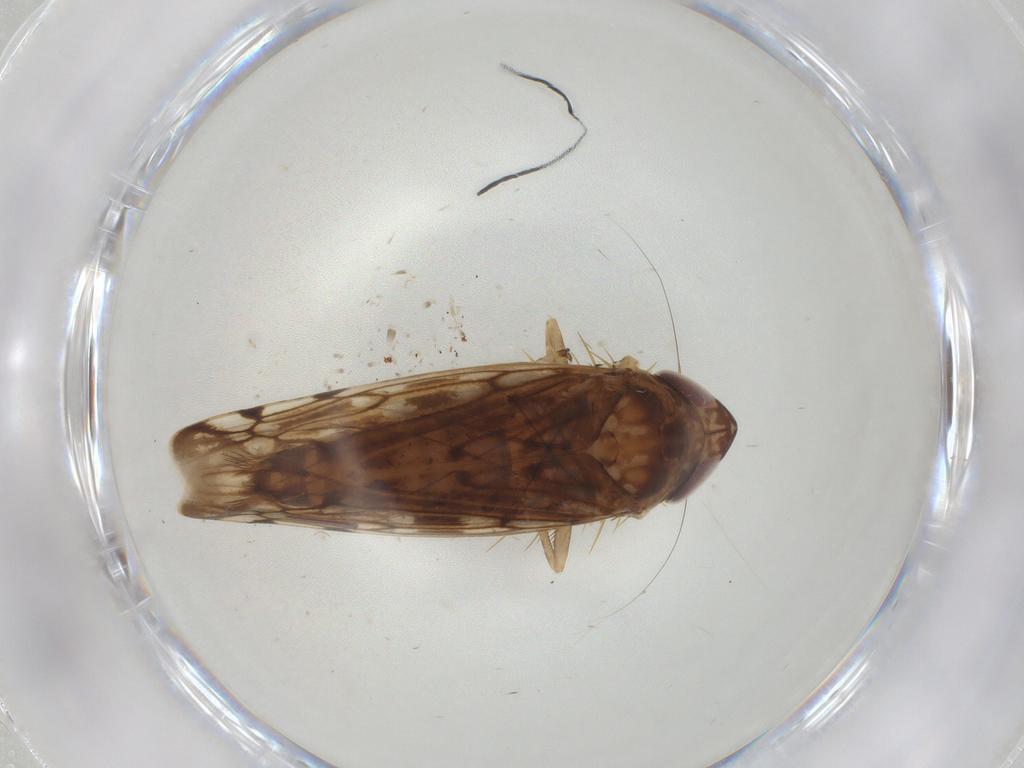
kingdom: Animalia
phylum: Arthropoda
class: Insecta
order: Hemiptera
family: Cicadellidae
